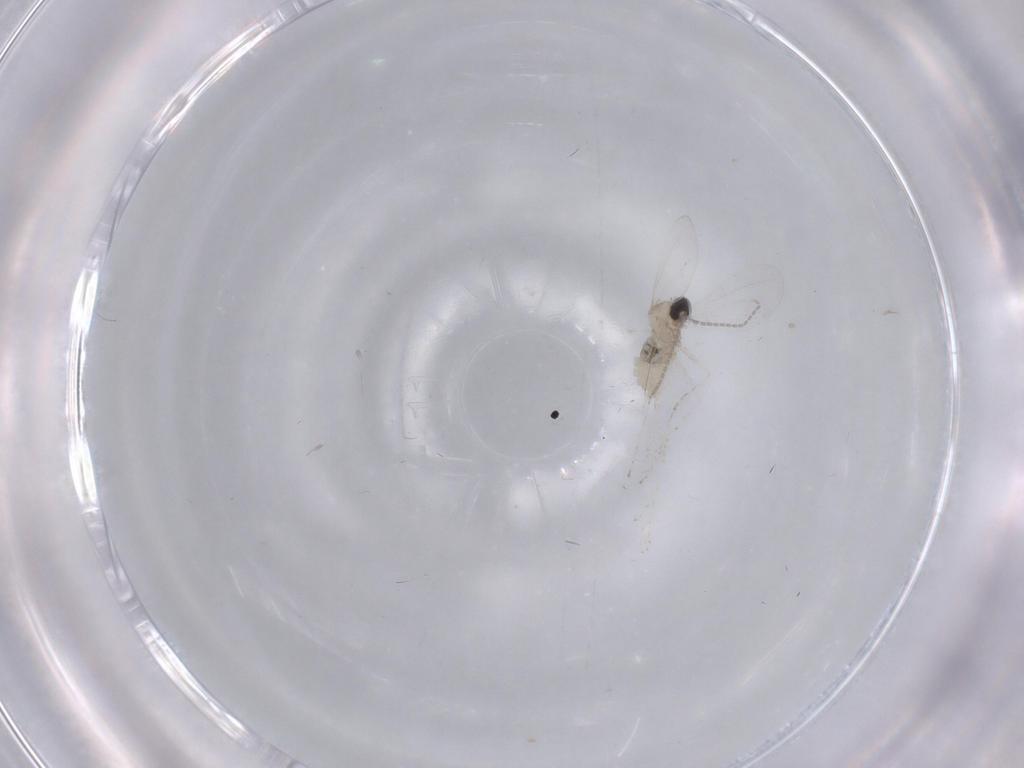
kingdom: Animalia
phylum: Arthropoda
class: Insecta
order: Diptera
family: Cecidomyiidae
